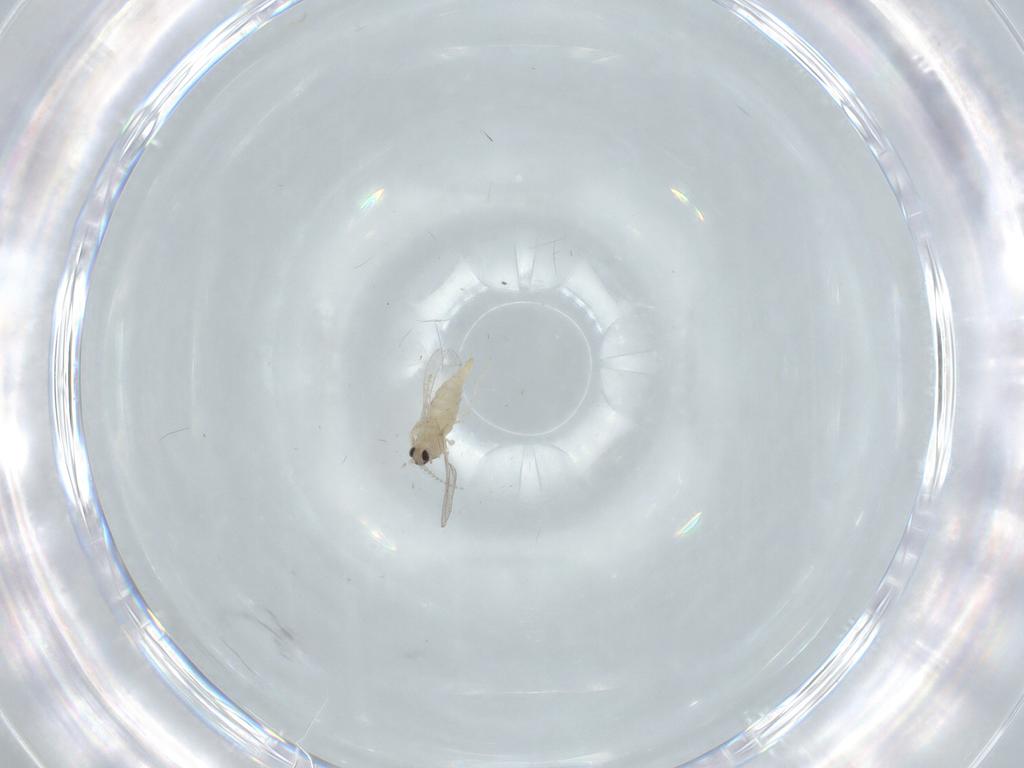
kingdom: Animalia
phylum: Arthropoda
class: Insecta
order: Diptera
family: Cecidomyiidae
